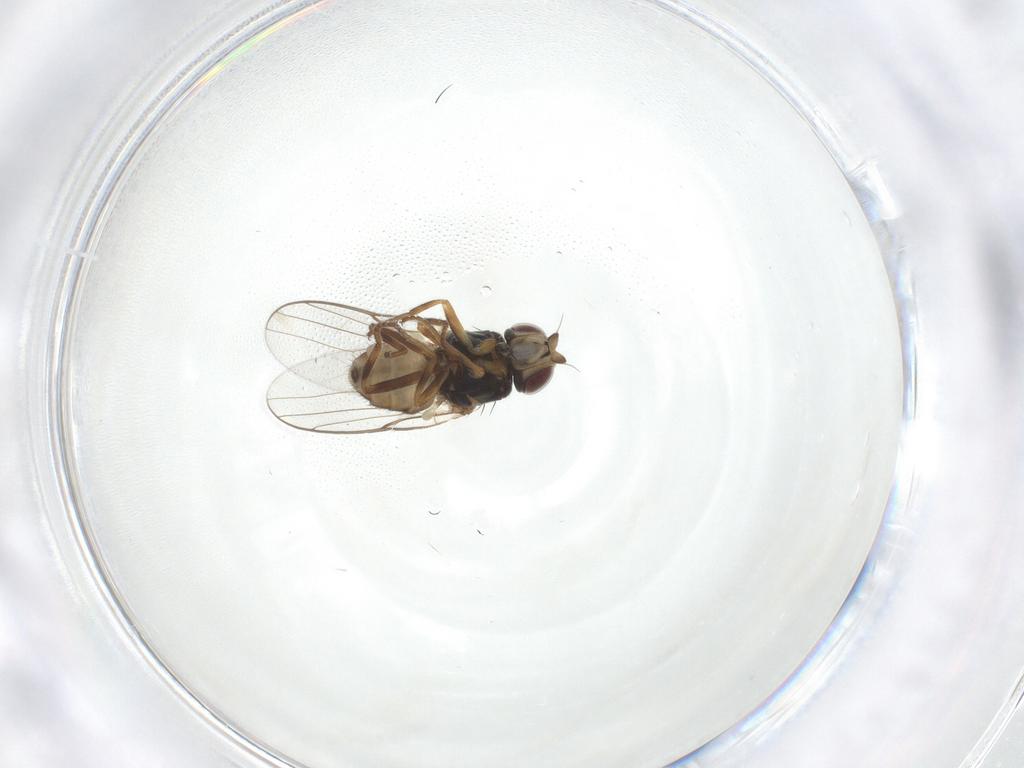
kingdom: Animalia
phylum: Arthropoda
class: Insecta
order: Diptera
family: Chloropidae
